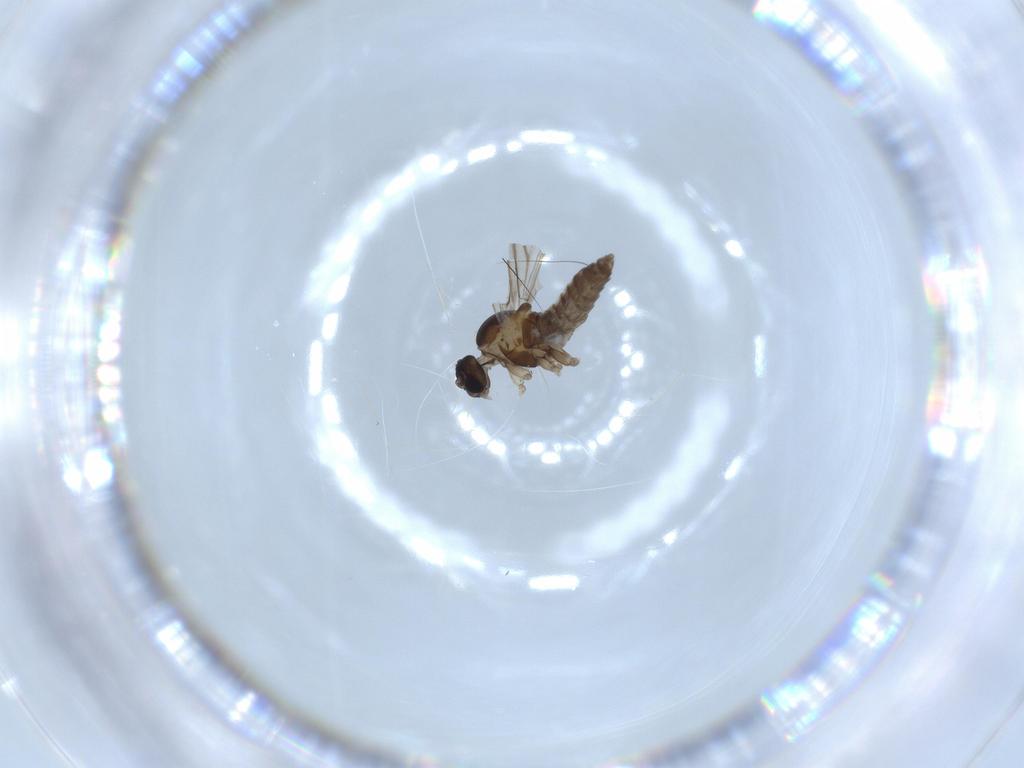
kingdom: Animalia
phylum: Arthropoda
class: Insecta
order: Diptera
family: Cecidomyiidae
